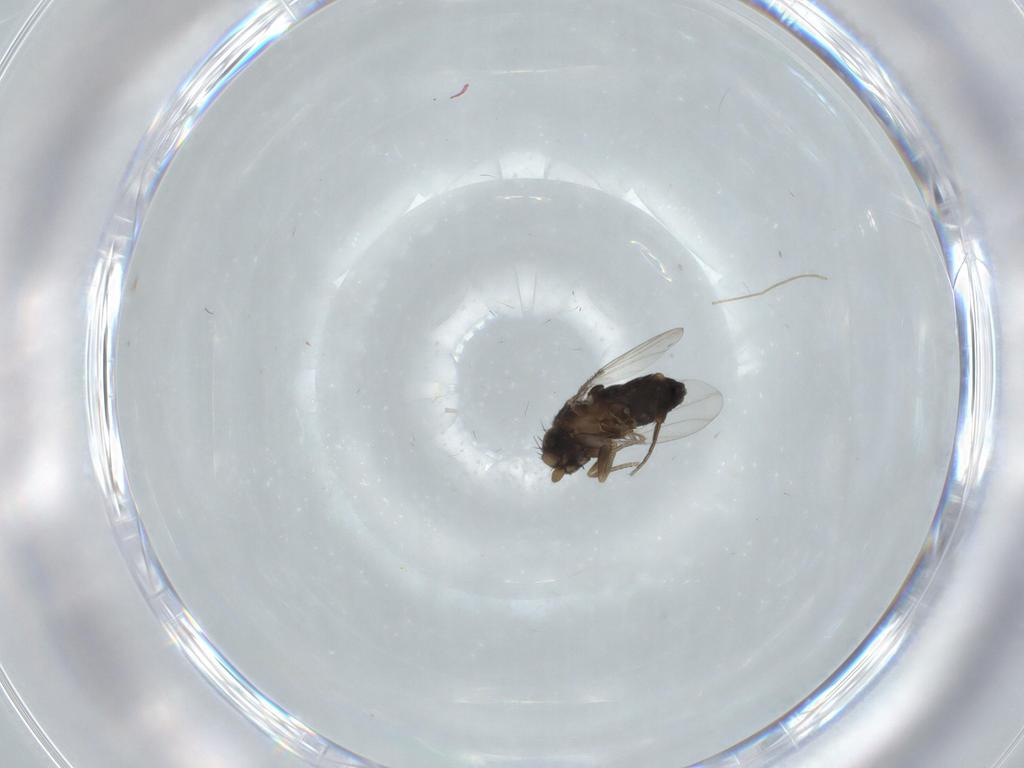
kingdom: Animalia
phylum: Arthropoda
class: Insecta
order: Diptera
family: Phoridae
